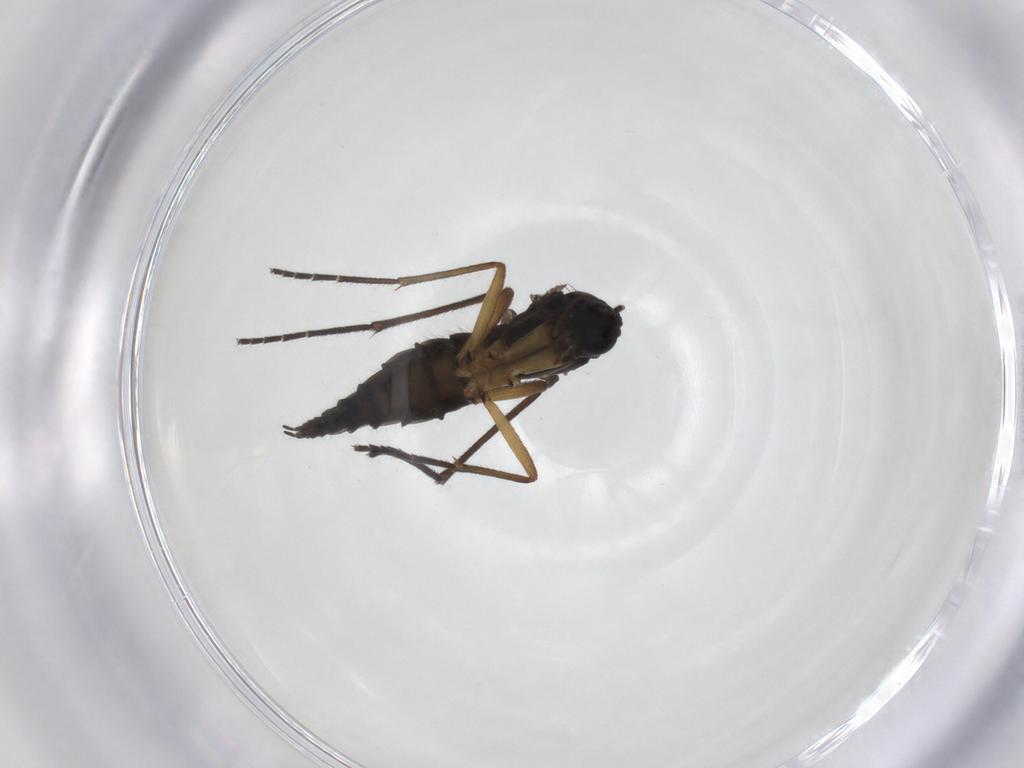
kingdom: Animalia
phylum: Arthropoda
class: Insecta
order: Diptera
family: Sciaridae
